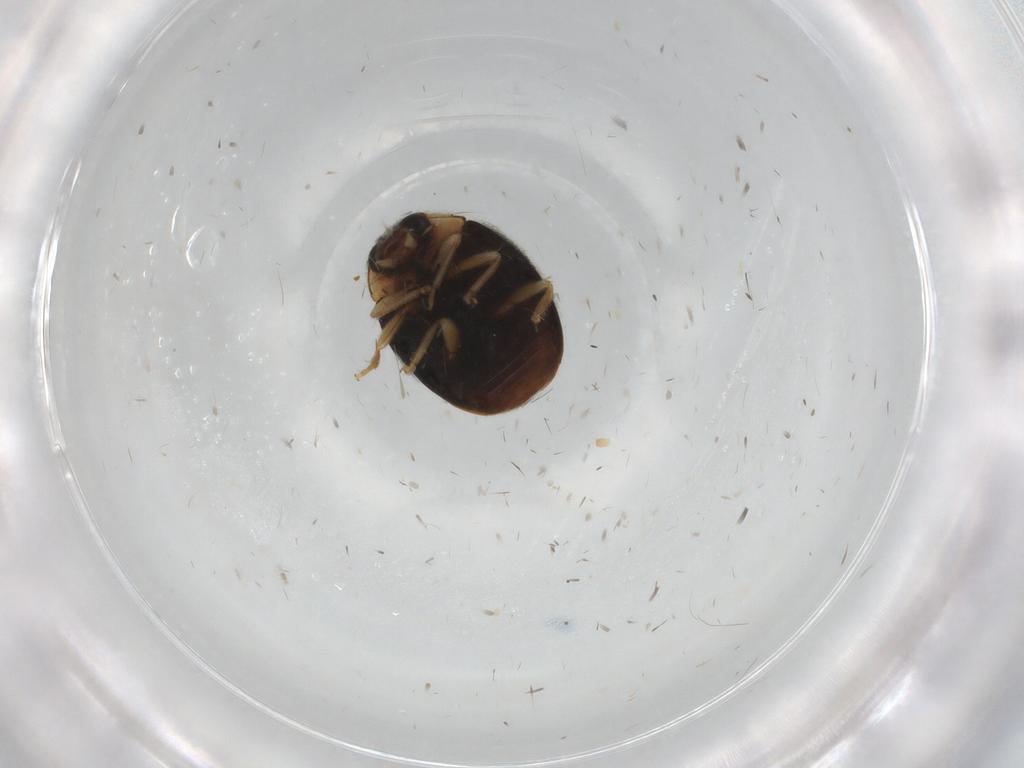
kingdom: Animalia
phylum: Arthropoda
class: Insecta
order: Coleoptera
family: Coccinellidae
